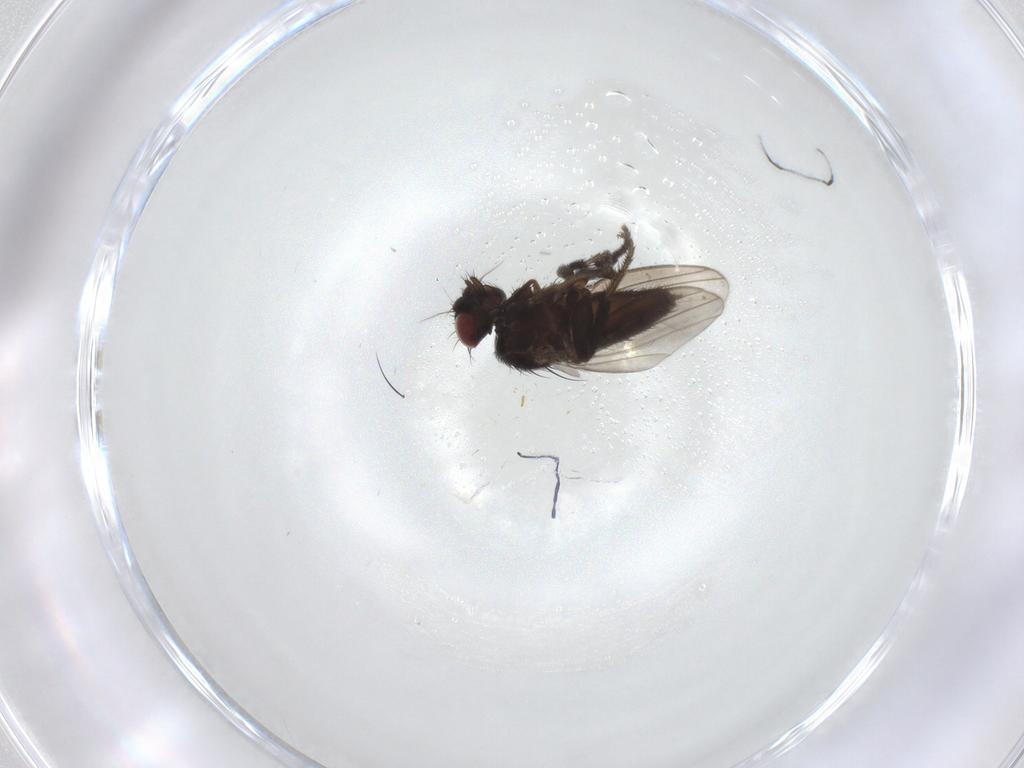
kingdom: Animalia
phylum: Arthropoda
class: Insecta
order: Diptera
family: Milichiidae
